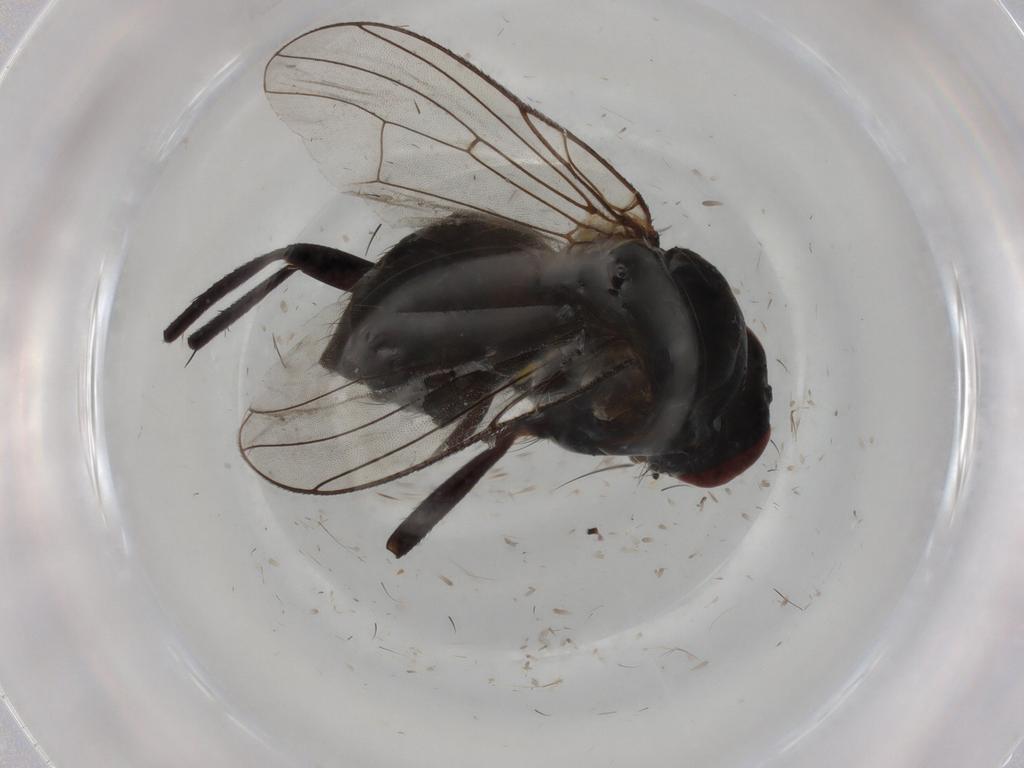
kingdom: Animalia
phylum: Arthropoda
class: Insecta
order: Diptera
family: Anthomyiidae
